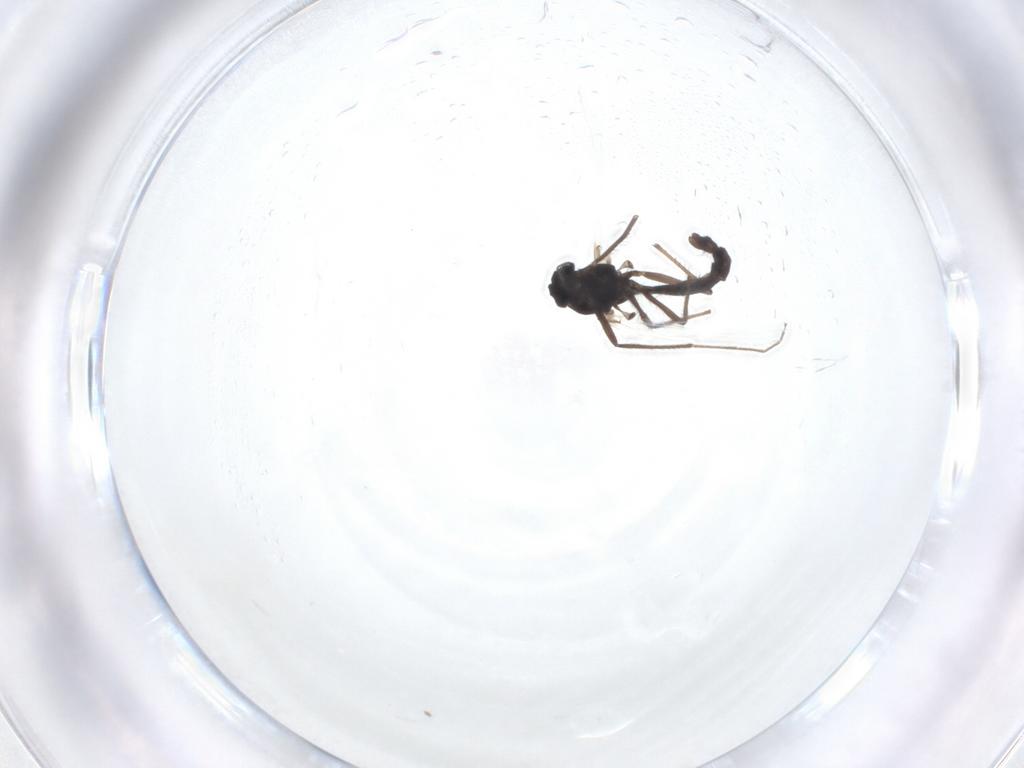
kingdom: Animalia
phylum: Arthropoda
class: Insecta
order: Diptera
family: Chironomidae
